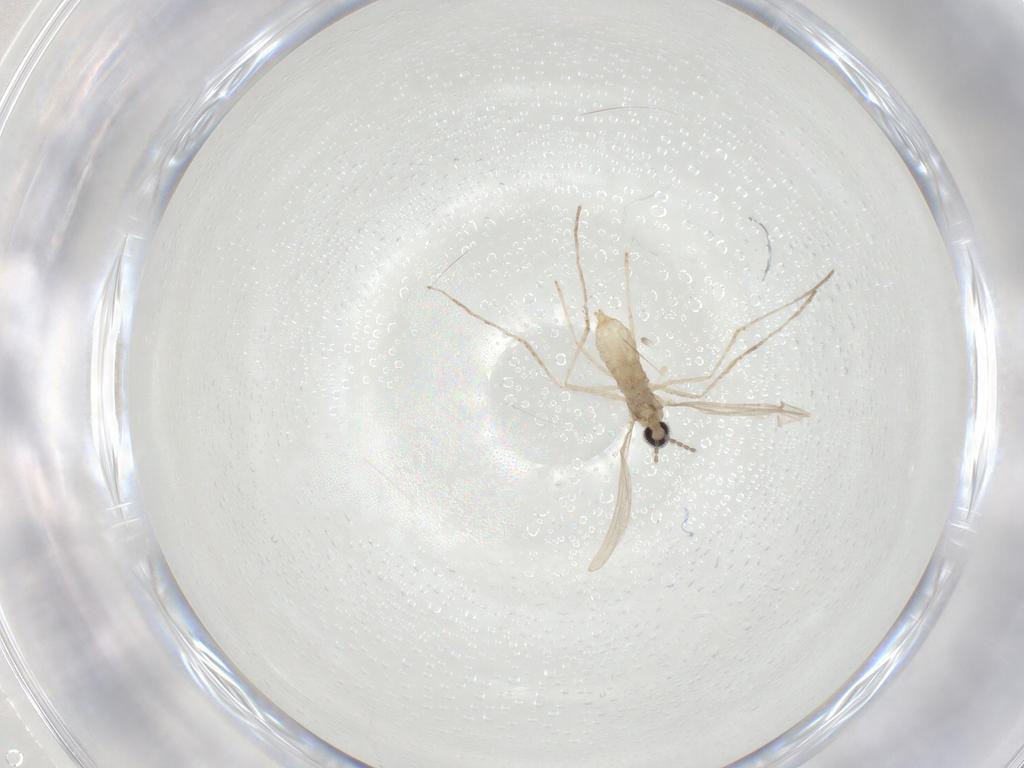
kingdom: Animalia
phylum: Arthropoda
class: Insecta
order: Diptera
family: Cecidomyiidae
